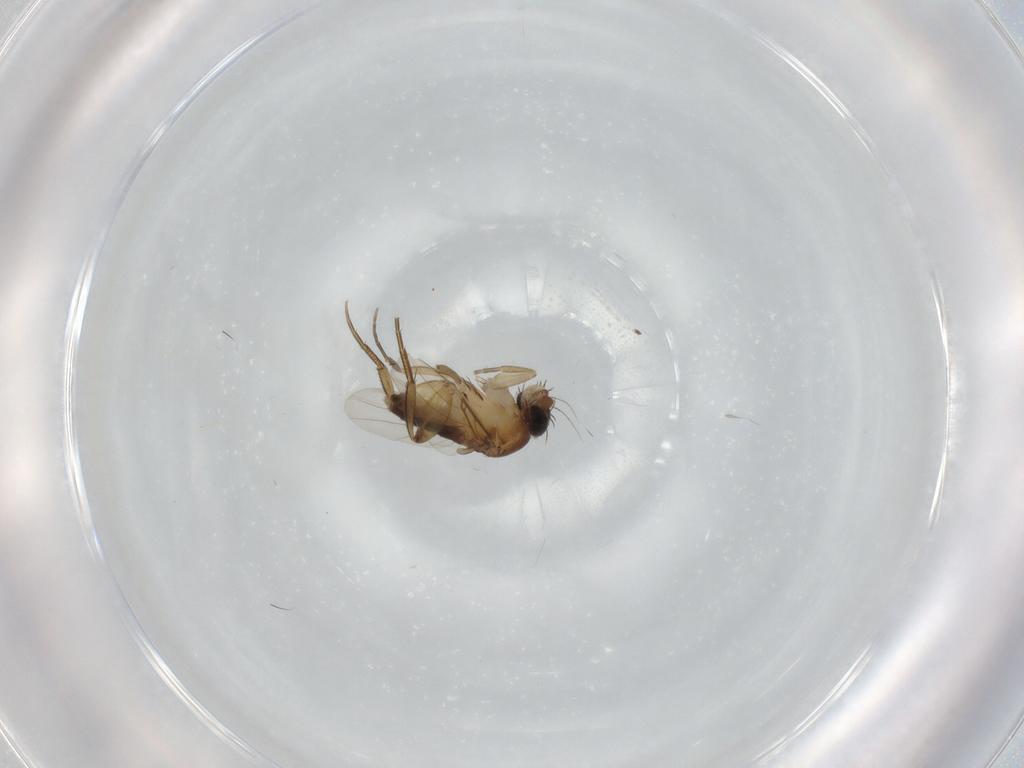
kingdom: Animalia
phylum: Arthropoda
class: Insecta
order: Diptera
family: Phoridae
